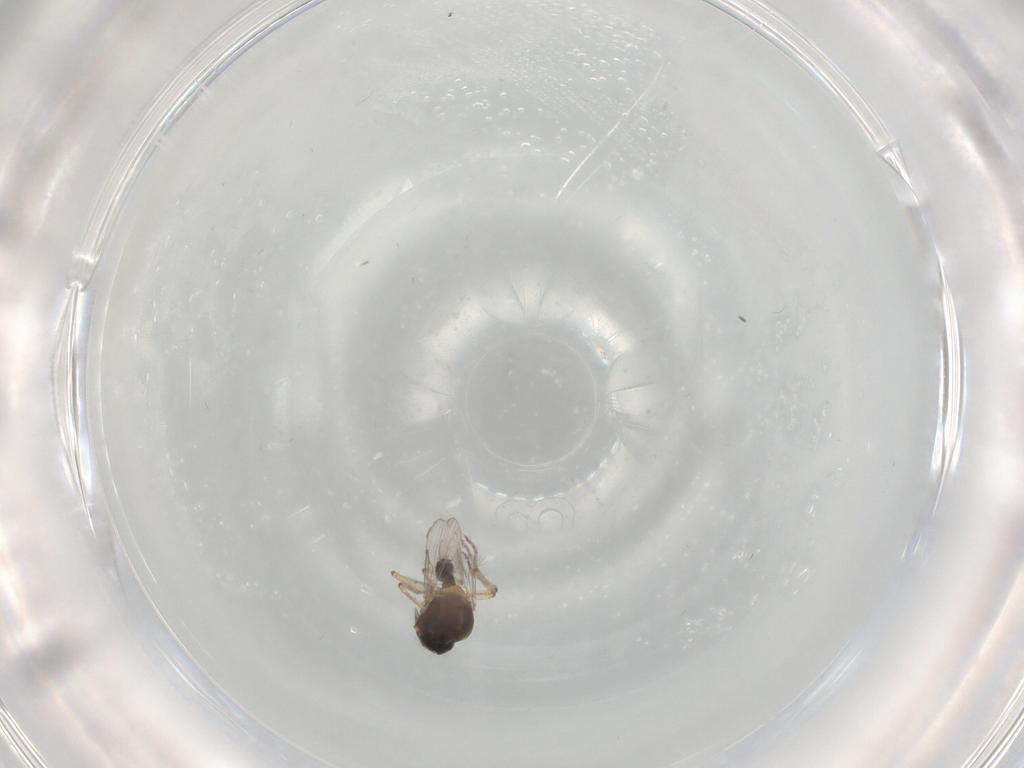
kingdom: Animalia
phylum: Arthropoda
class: Insecta
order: Diptera
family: Ceratopogonidae
